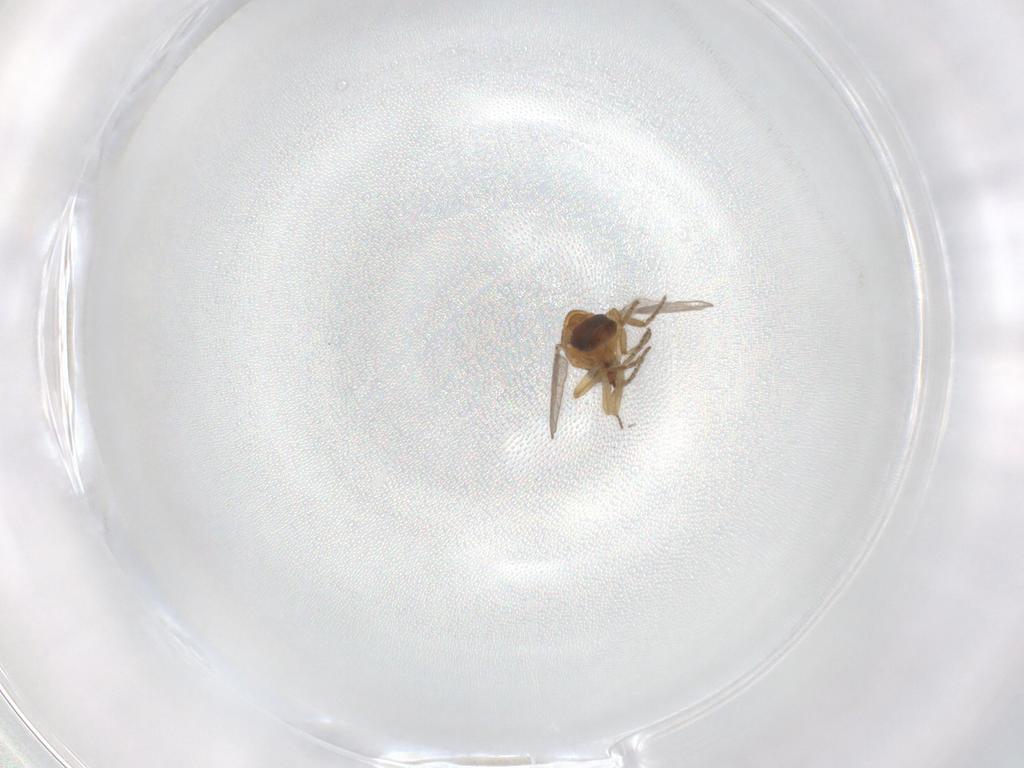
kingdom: Animalia
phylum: Arthropoda
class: Insecta
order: Diptera
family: Ceratopogonidae
